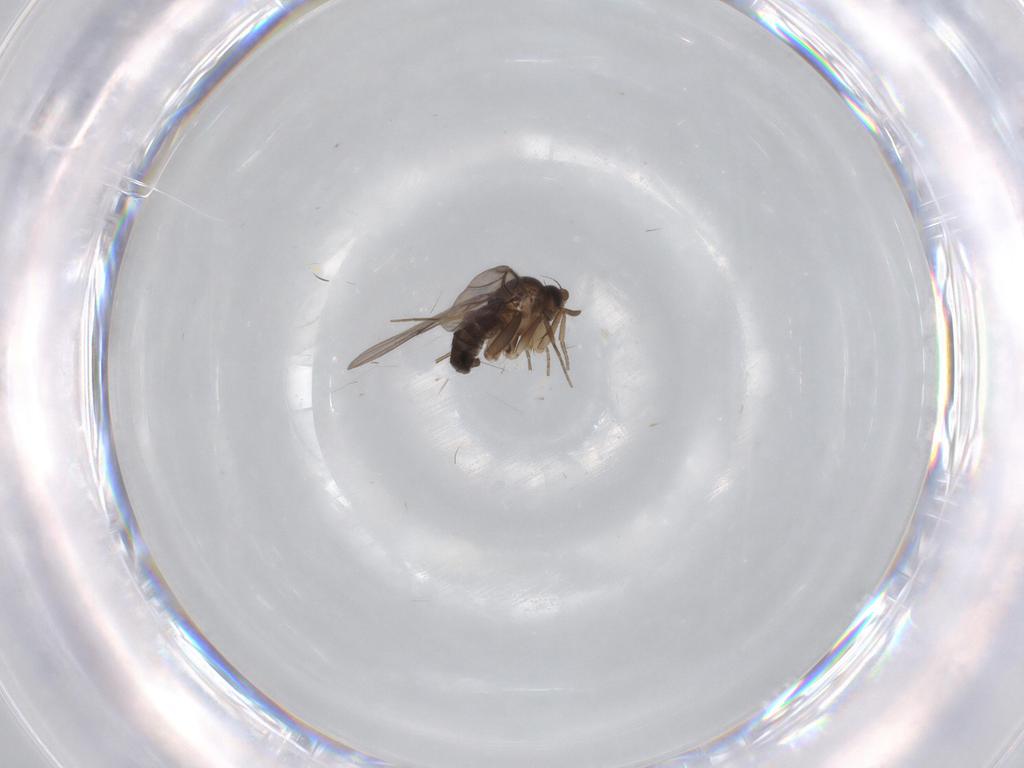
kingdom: Animalia
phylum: Arthropoda
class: Insecta
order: Diptera
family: Phoridae
